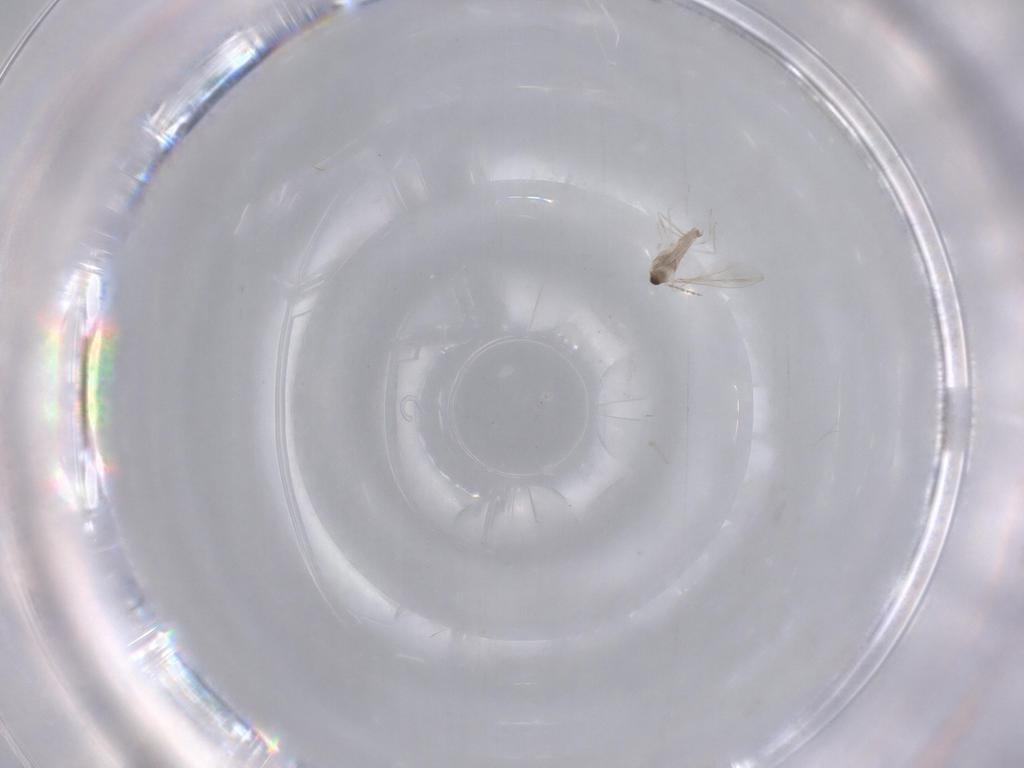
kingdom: Animalia
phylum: Arthropoda
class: Insecta
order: Diptera
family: Cecidomyiidae
